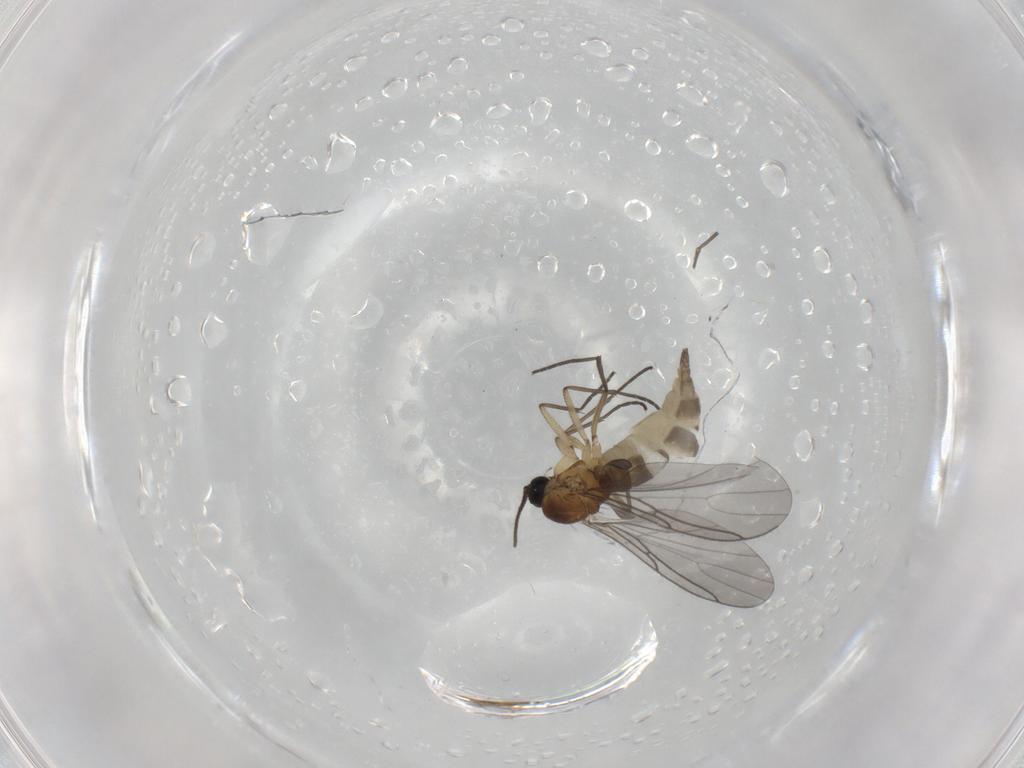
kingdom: Animalia
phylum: Arthropoda
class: Insecta
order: Diptera
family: Sciaridae
